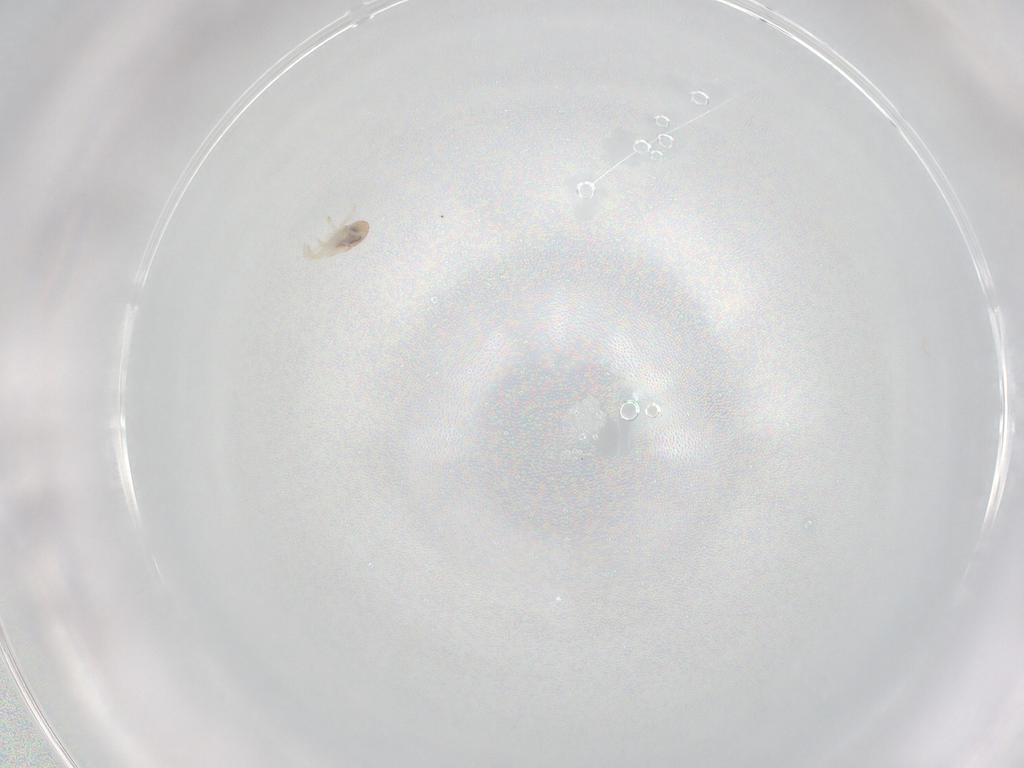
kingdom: Animalia
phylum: Arthropoda
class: Arachnida
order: Mesostigmata
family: Zerconidae
